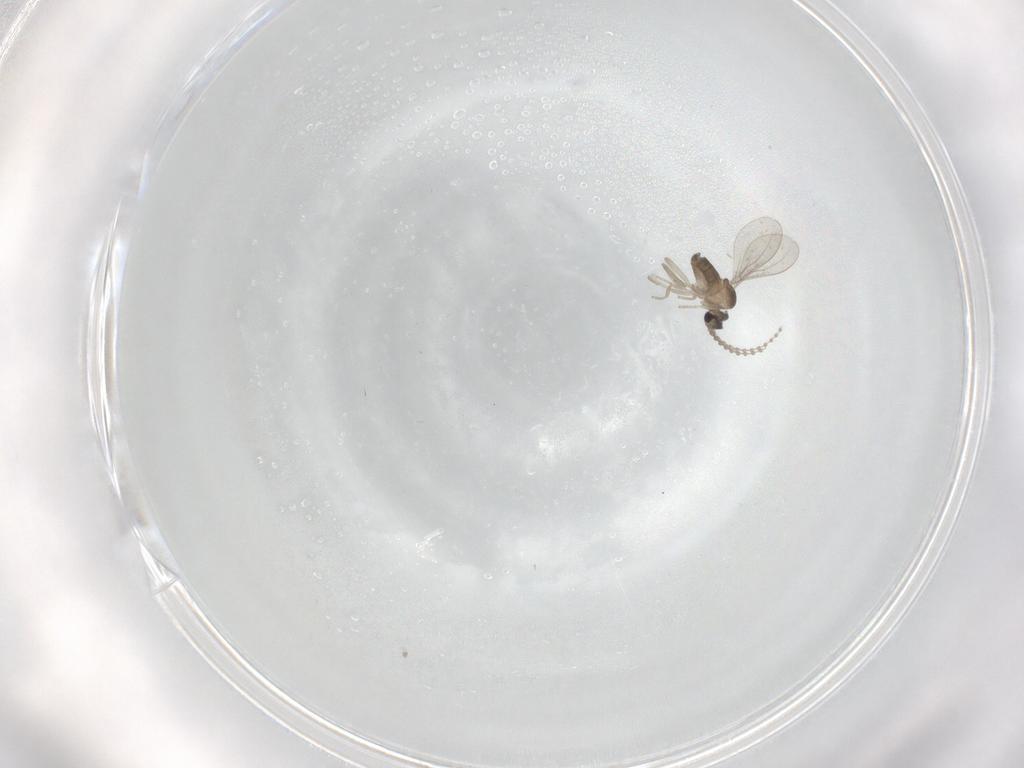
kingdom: Animalia
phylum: Arthropoda
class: Insecta
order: Diptera
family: Cecidomyiidae
